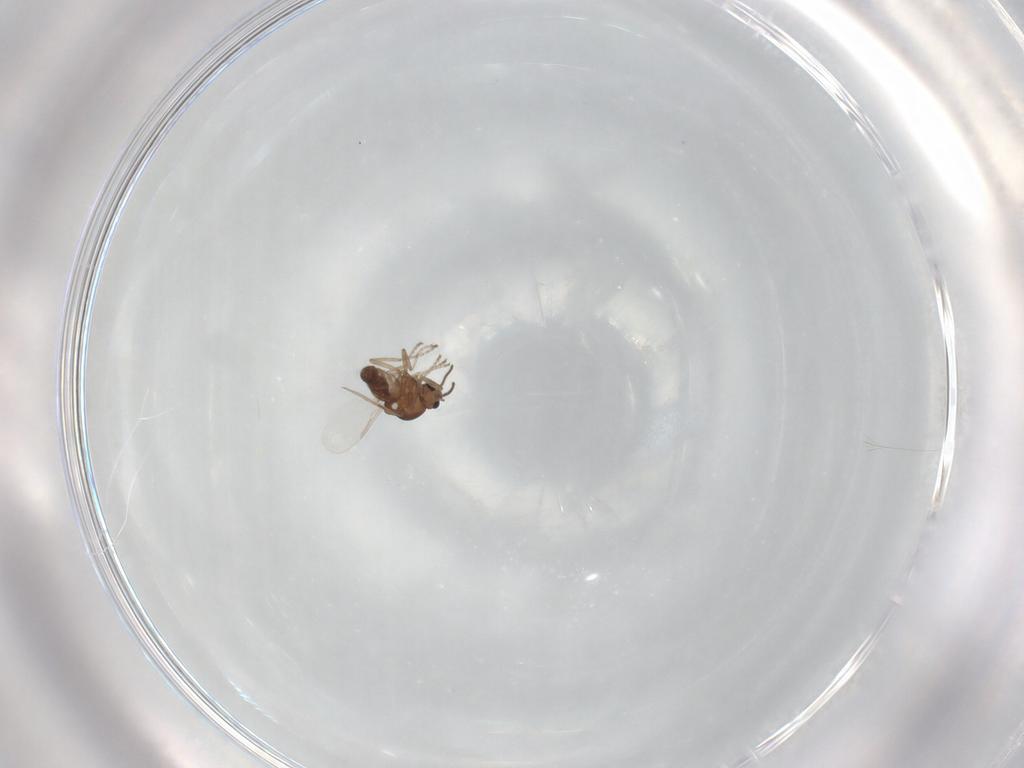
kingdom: Animalia
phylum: Arthropoda
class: Insecta
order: Diptera
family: Ceratopogonidae
